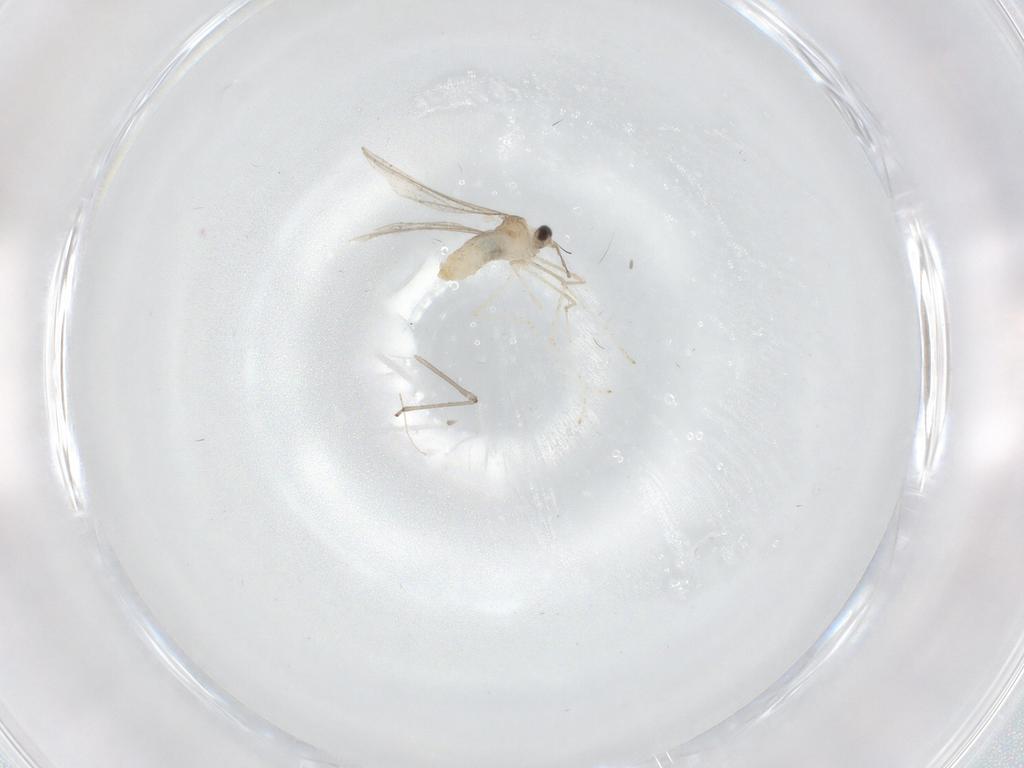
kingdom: Animalia
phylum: Arthropoda
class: Insecta
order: Diptera
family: Cecidomyiidae
